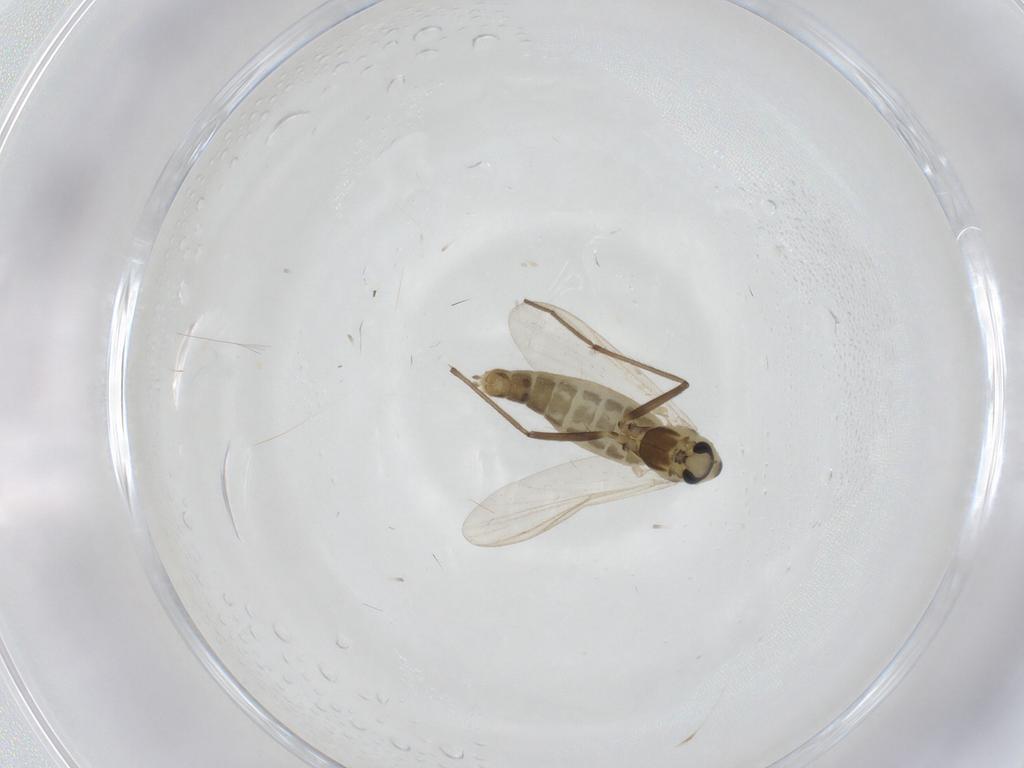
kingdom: Animalia
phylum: Arthropoda
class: Insecta
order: Diptera
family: Chironomidae
